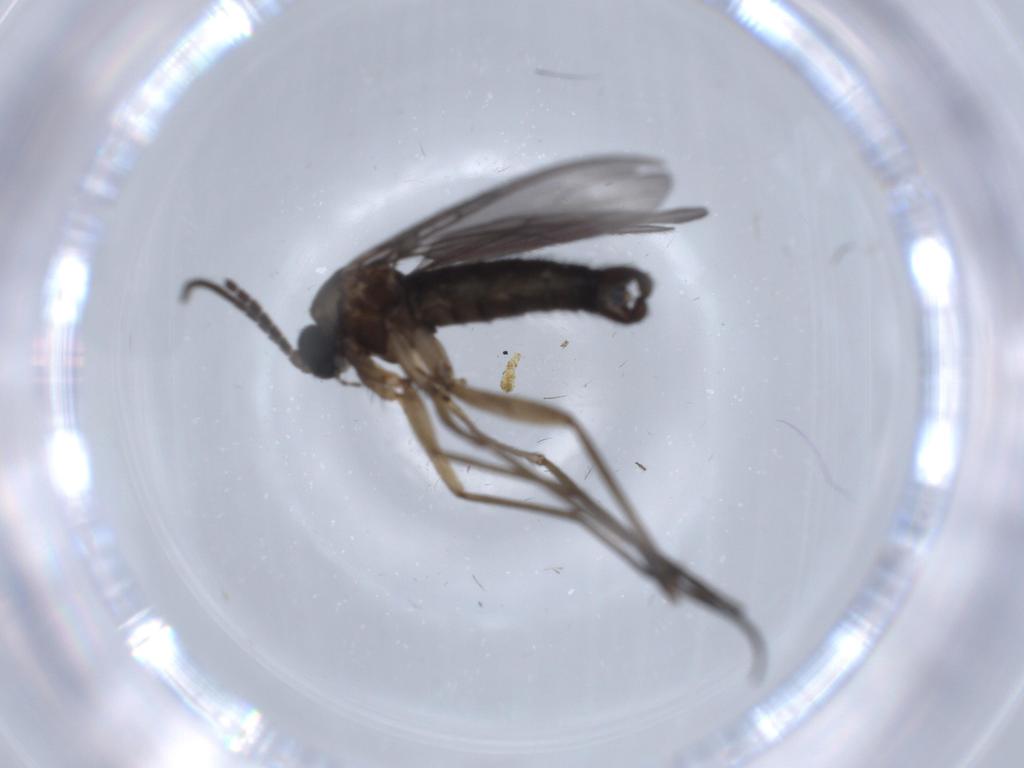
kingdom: Animalia
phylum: Arthropoda
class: Insecta
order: Diptera
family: Sciaridae
